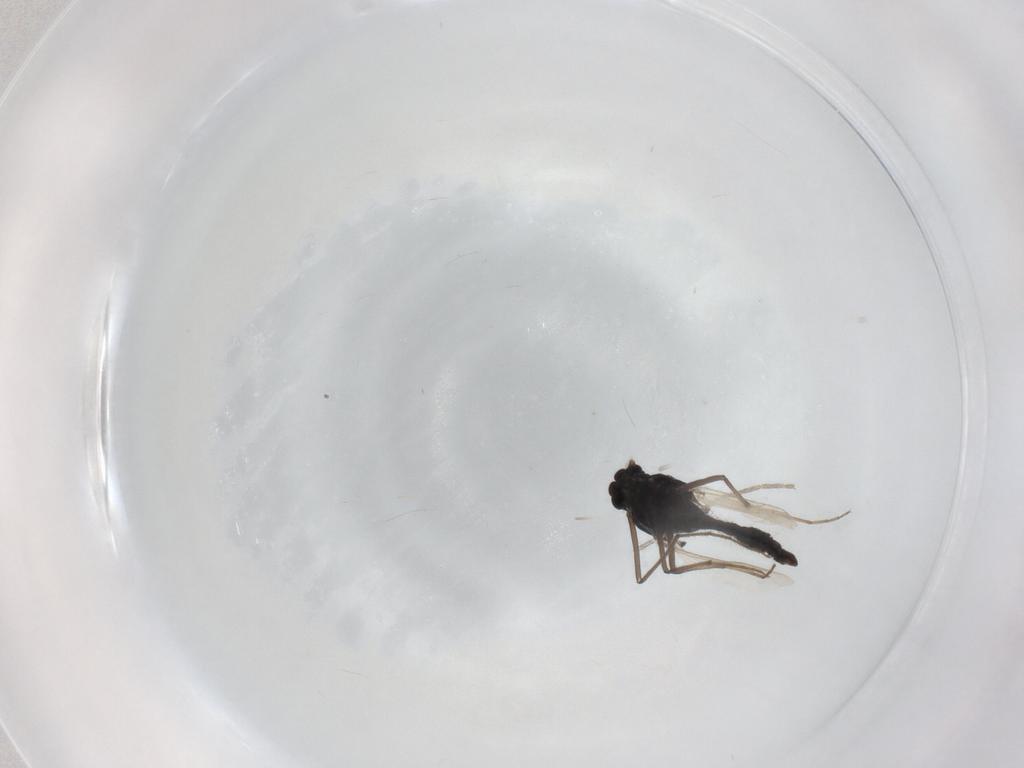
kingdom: Animalia
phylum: Arthropoda
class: Insecta
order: Diptera
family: Chironomidae
